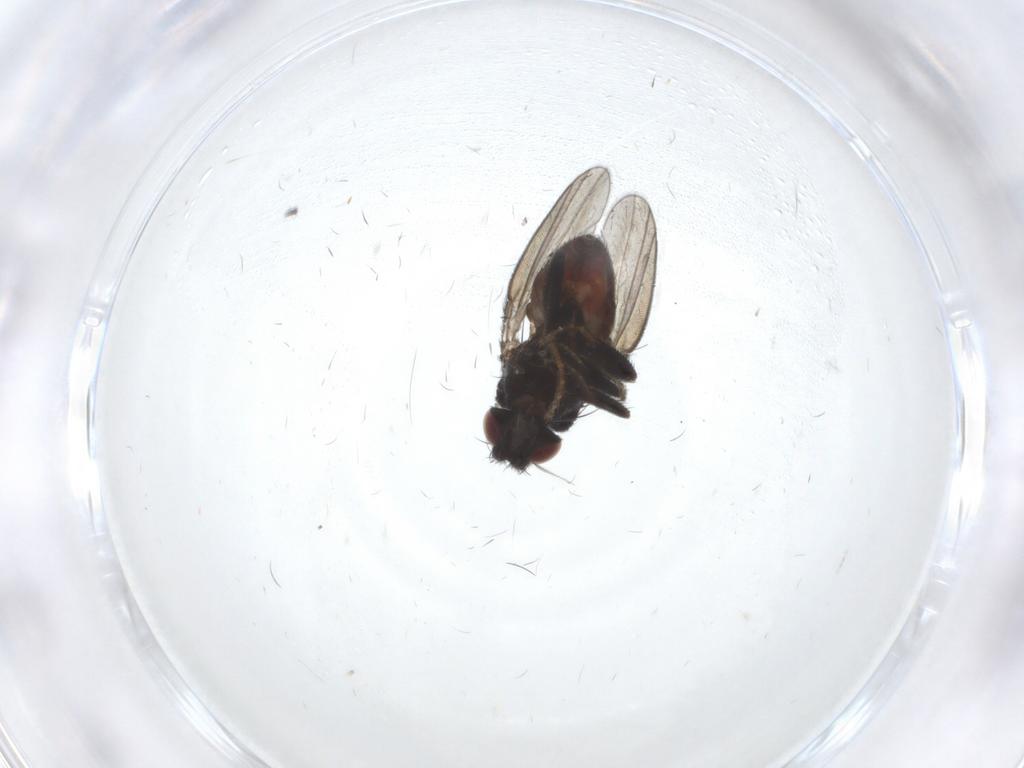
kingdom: Animalia
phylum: Arthropoda
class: Insecta
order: Diptera
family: Milichiidae
